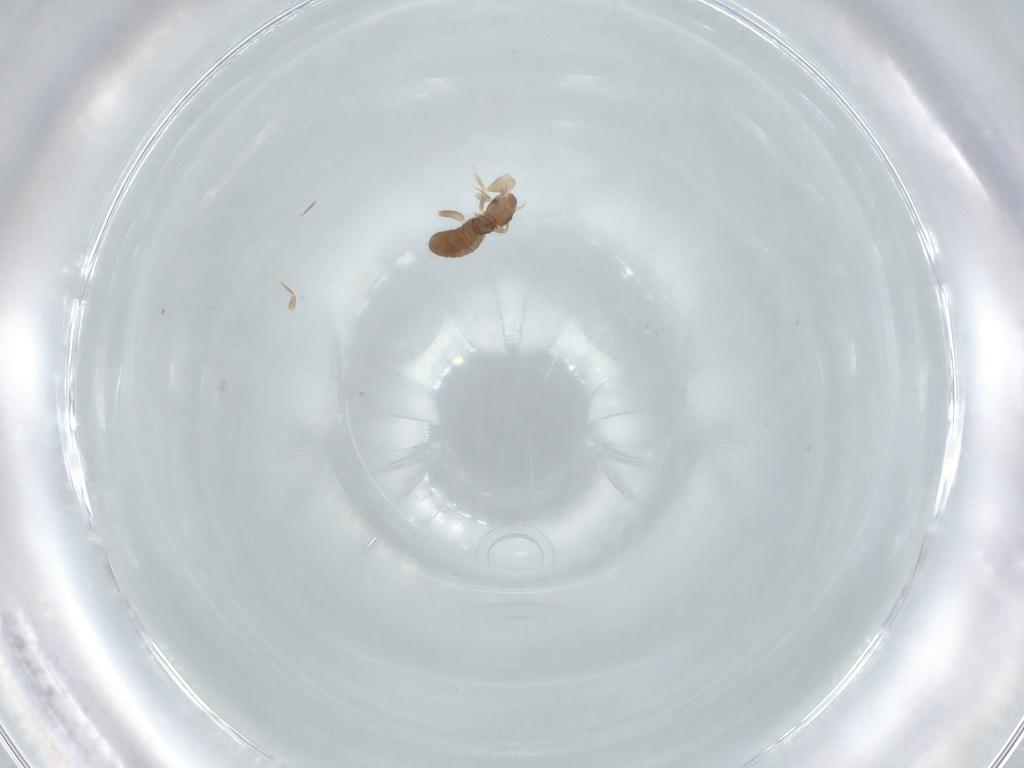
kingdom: Animalia
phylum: Arthropoda
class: Insecta
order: Psocodea
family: Liposcelididae
